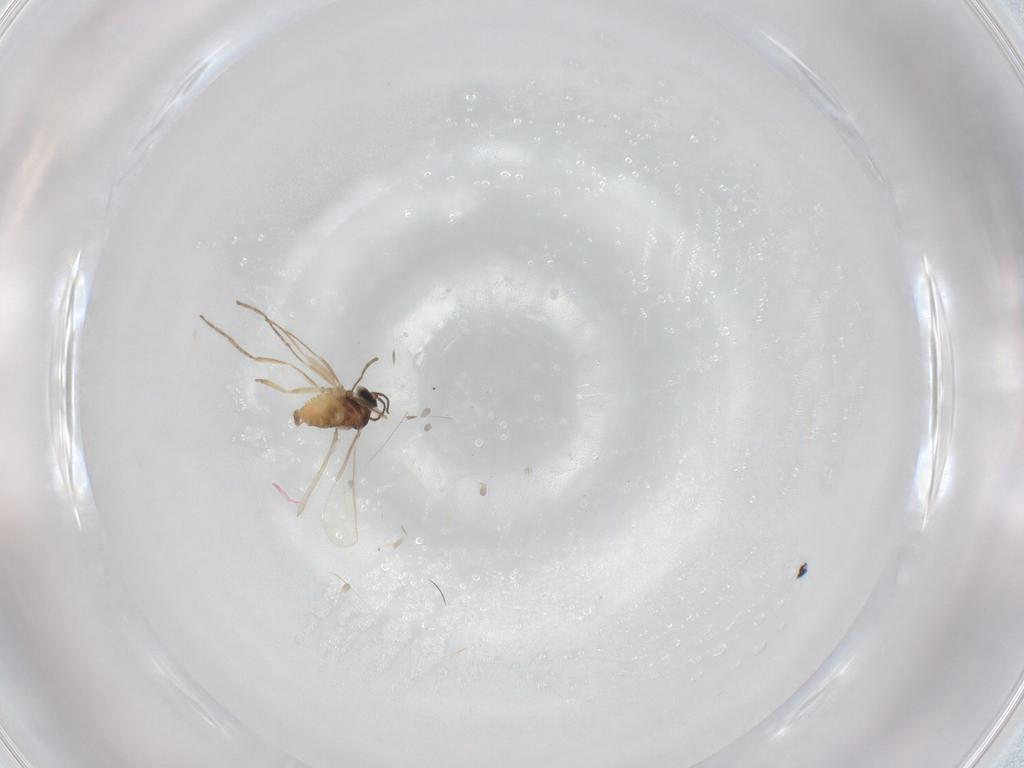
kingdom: Animalia
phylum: Arthropoda
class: Insecta
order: Diptera
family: Cecidomyiidae
